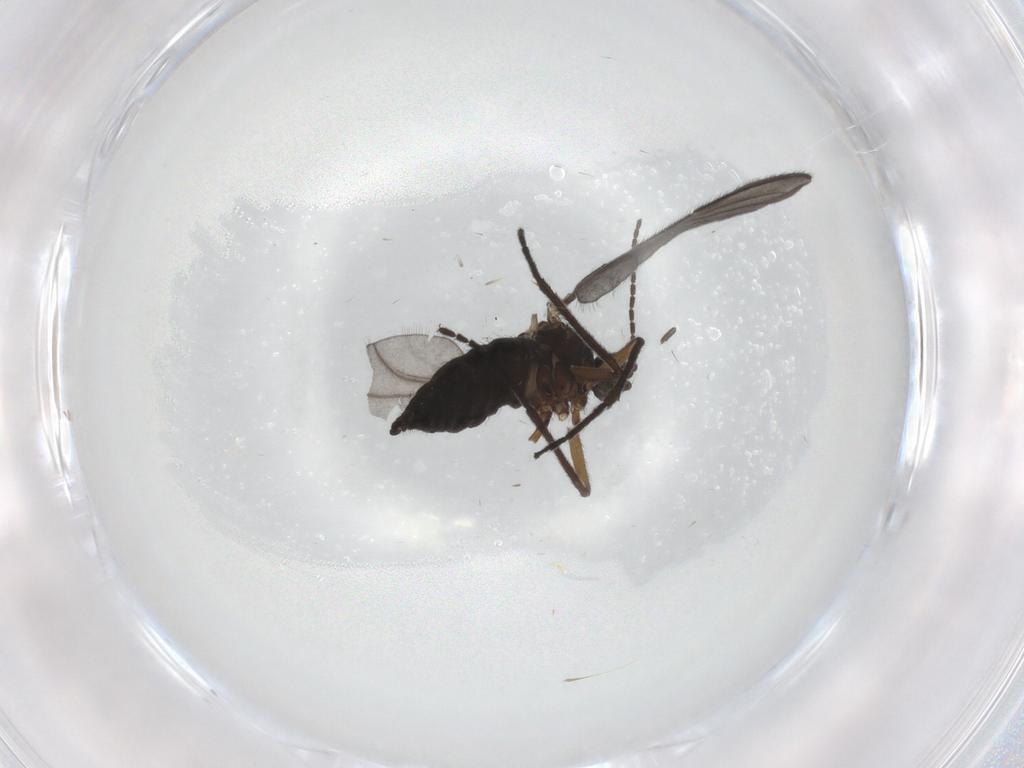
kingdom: Animalia
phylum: Arthropoda
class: Insecta
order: Diptera
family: Sciaridae
